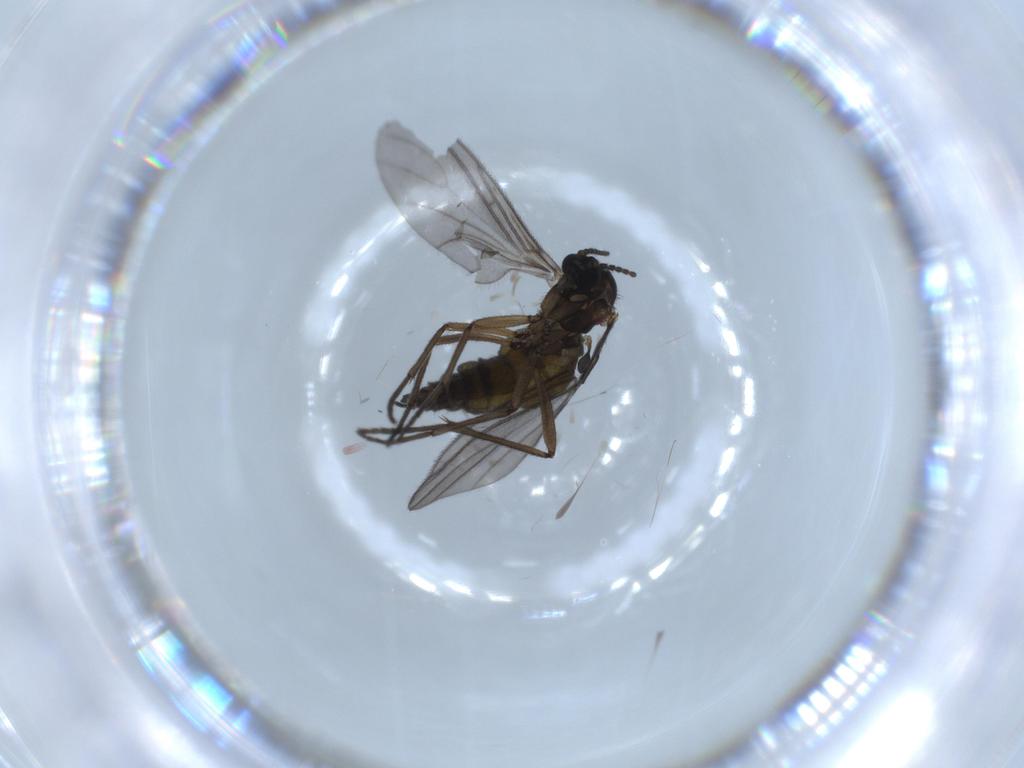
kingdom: Animalia
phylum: Arthropoda
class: Insecta
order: Diptera
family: Sciaridae
